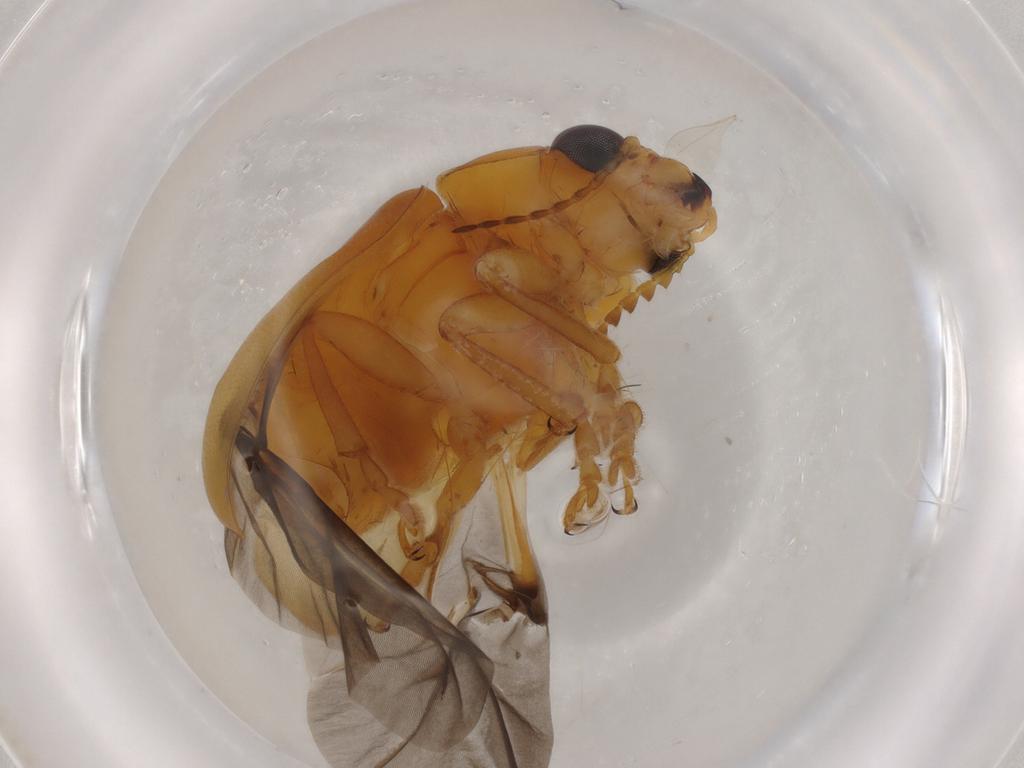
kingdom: Animalia
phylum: Arthropoda
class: Insecta
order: Coleoptera
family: Chrysomelidae
